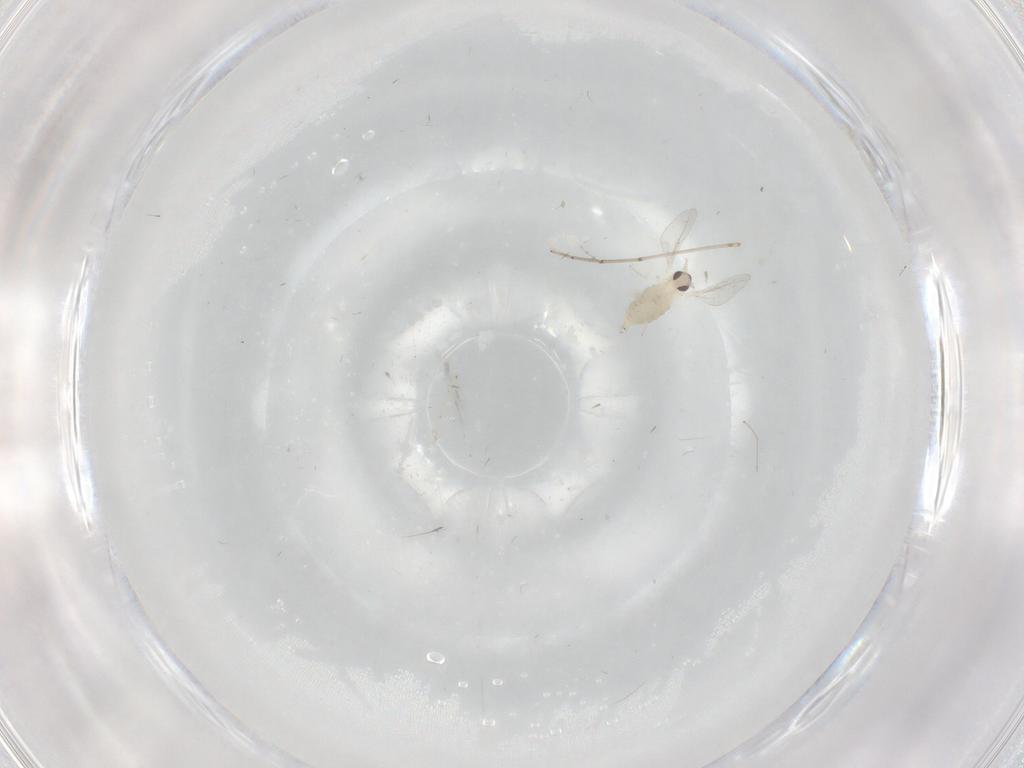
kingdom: Animalia
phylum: Arthropoda
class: Insecta
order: Diptera
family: Cecidomyiidae
